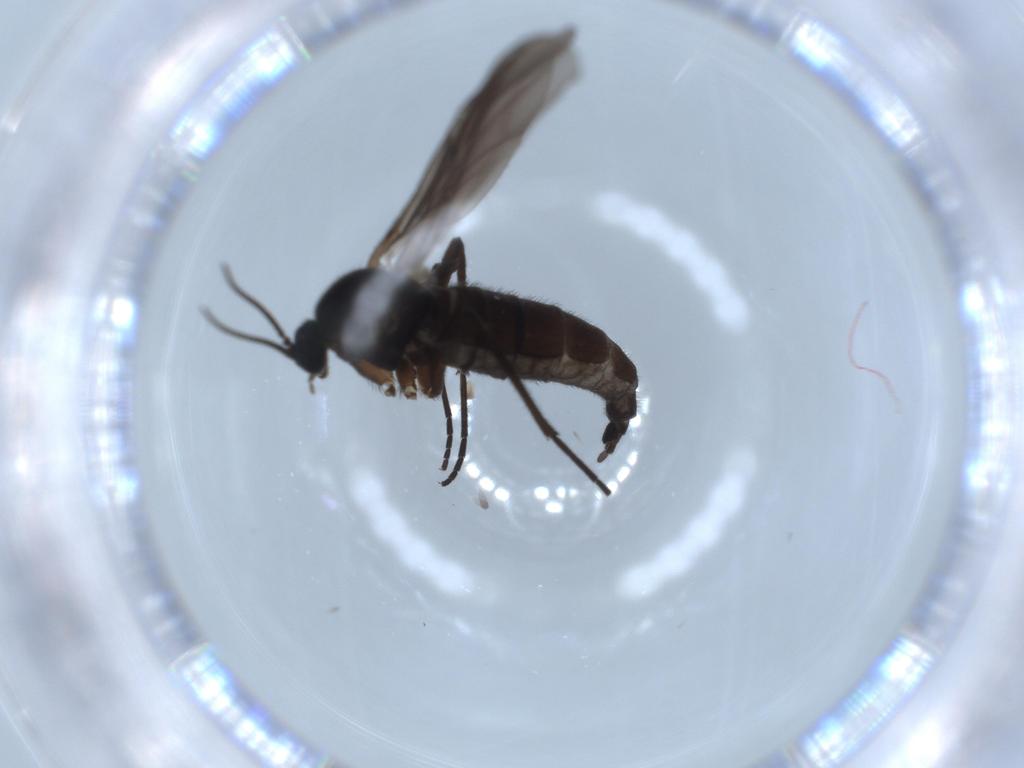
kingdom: Animalia
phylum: Arthropoda
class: Insecta
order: Diptera
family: Sciaridae
